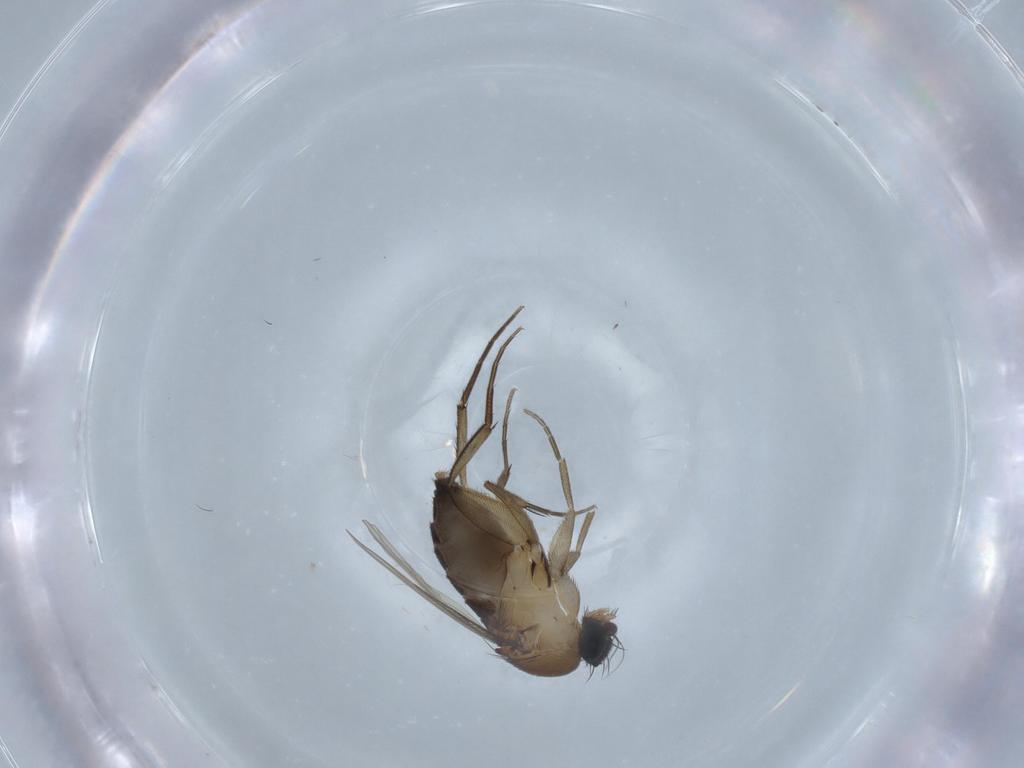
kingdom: Animalia
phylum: Arthropoda
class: Insecta
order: Diptera
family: Phoridae
